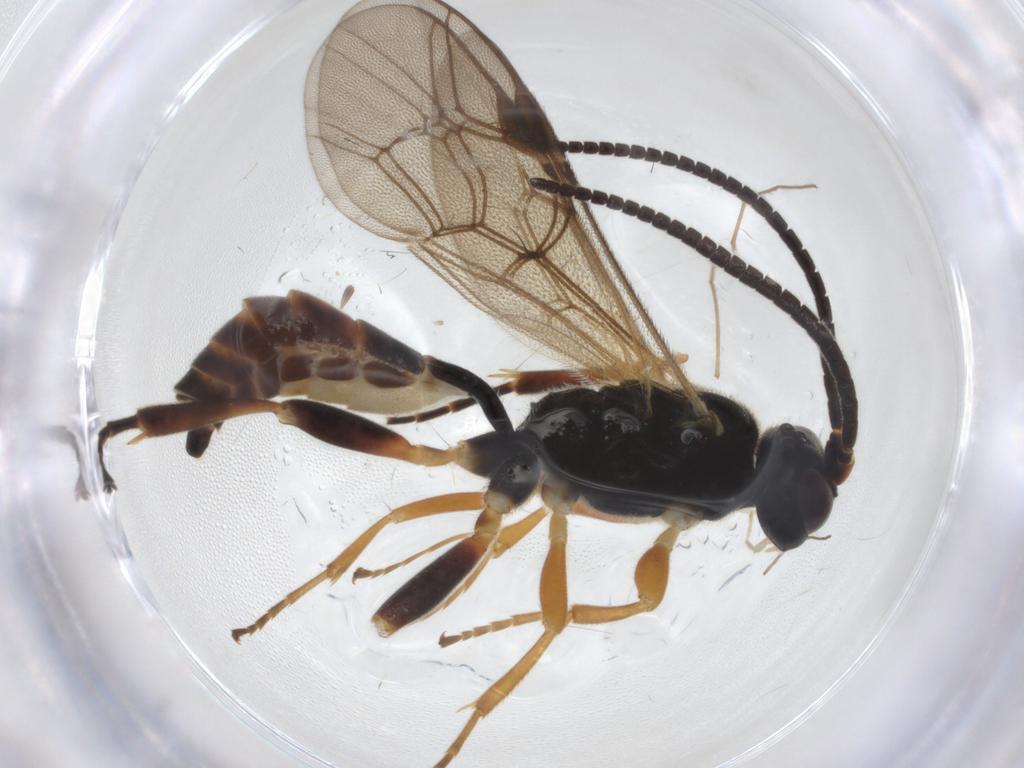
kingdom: Animalia
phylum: Arthropoda
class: Insecta
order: Hymenoptera
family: Ichneumonidae
